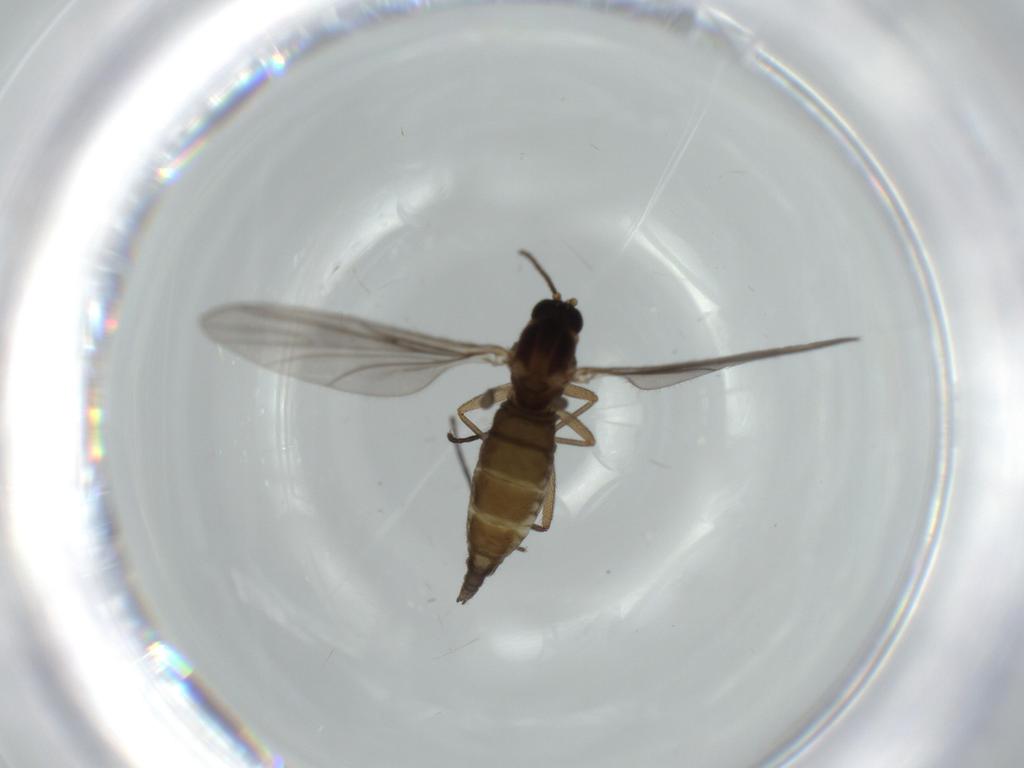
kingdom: Animalia
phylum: Arthropoda
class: Insecta
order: Diptera
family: Sciaridae
